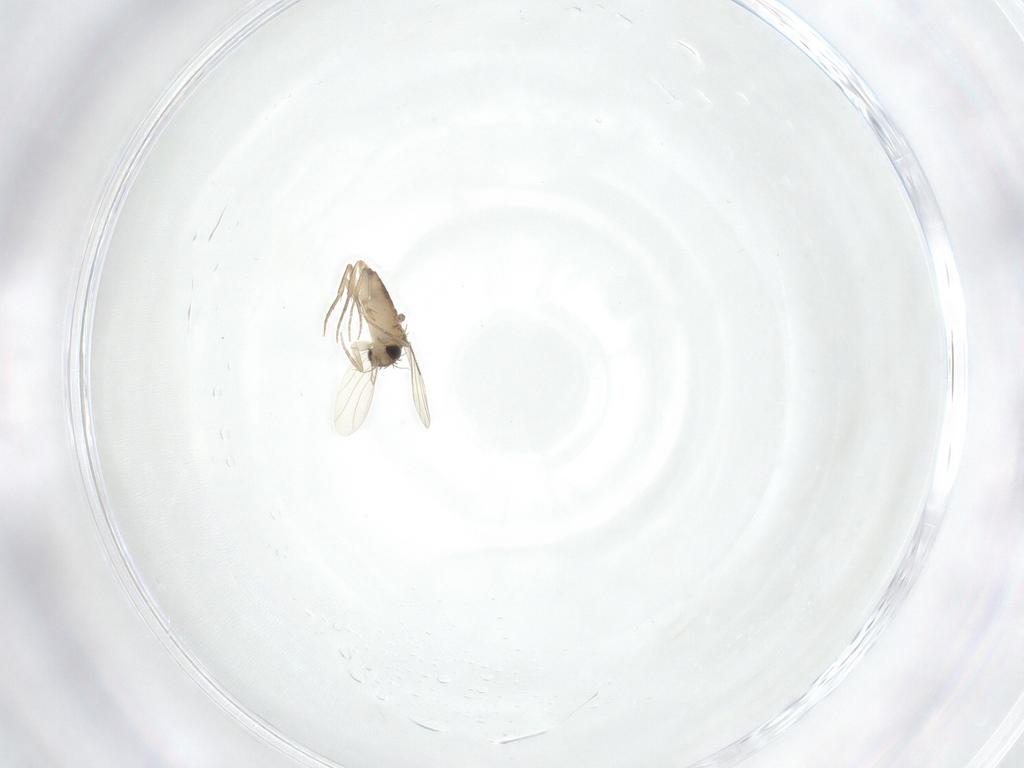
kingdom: Animalia
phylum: Arthropoda
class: Insecta
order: Diptera
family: Phoridae
